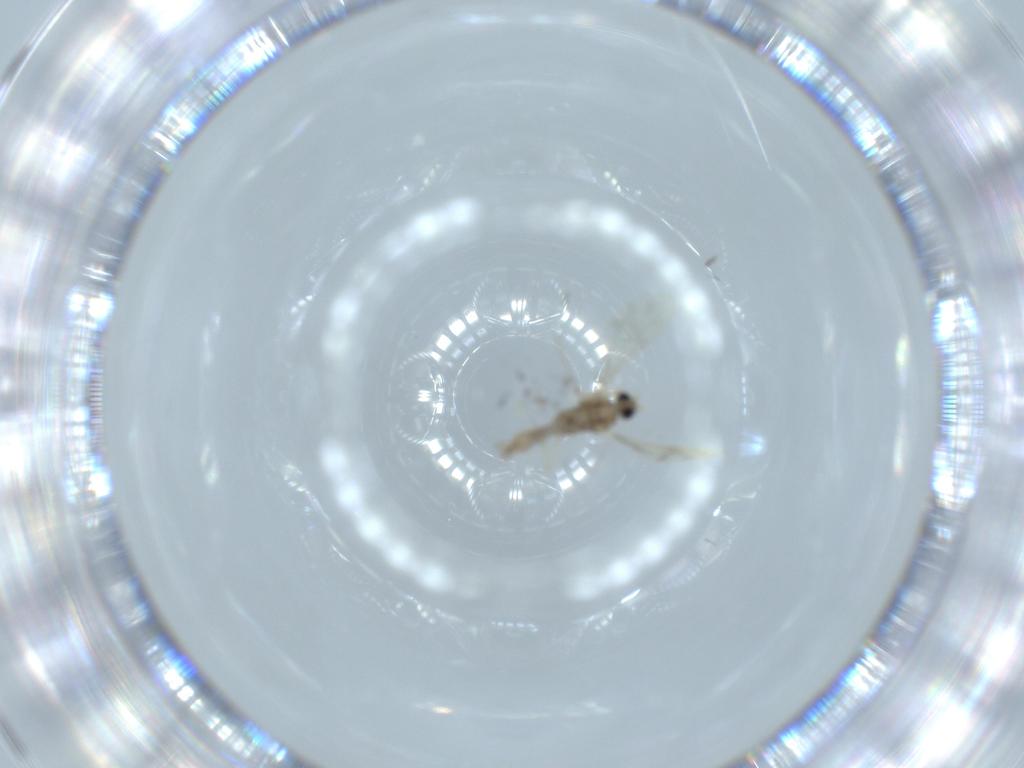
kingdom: Animalia
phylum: Arthropoda
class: Insecta
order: Diptera
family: Cecidomyiidae
